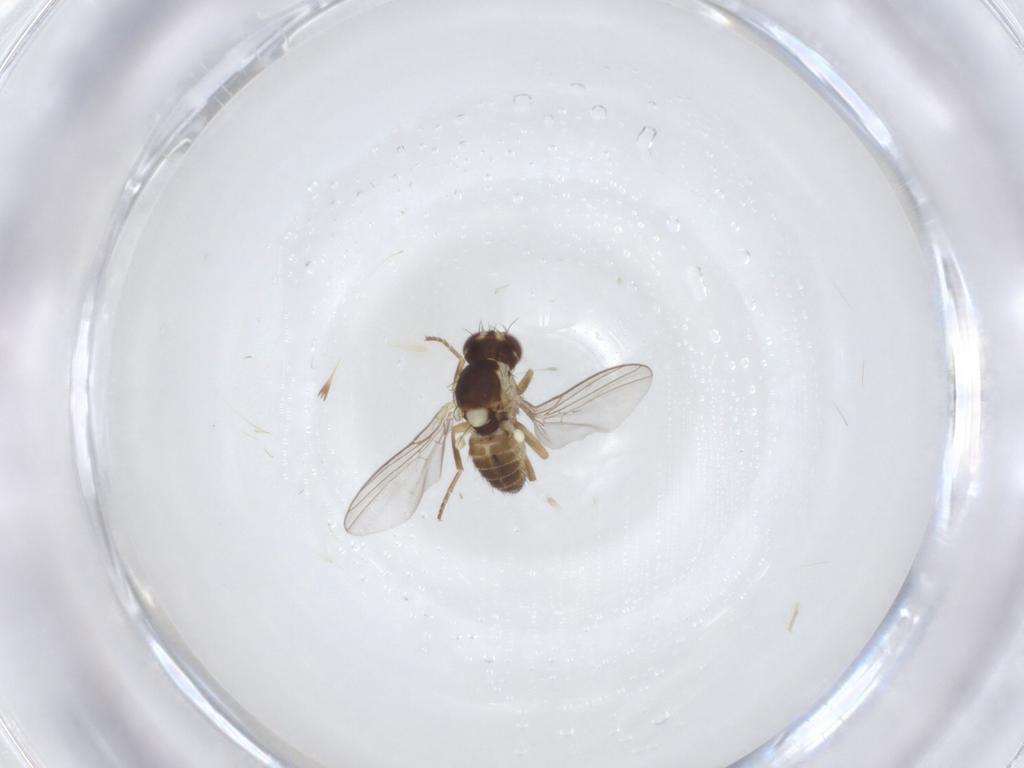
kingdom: Animalia
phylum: Arthropoda
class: Insecta
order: Diptera
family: Agromyzidae
